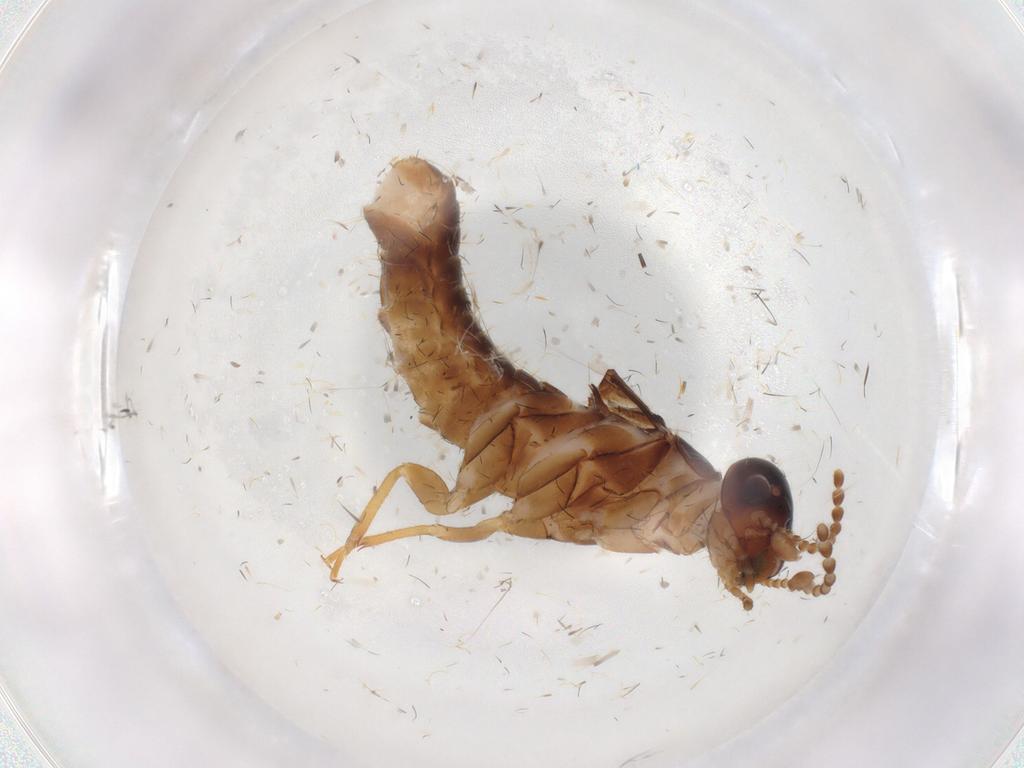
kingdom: Animalia
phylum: Arthropoda
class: Insecta
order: Blattodea
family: Kalotermitidae
